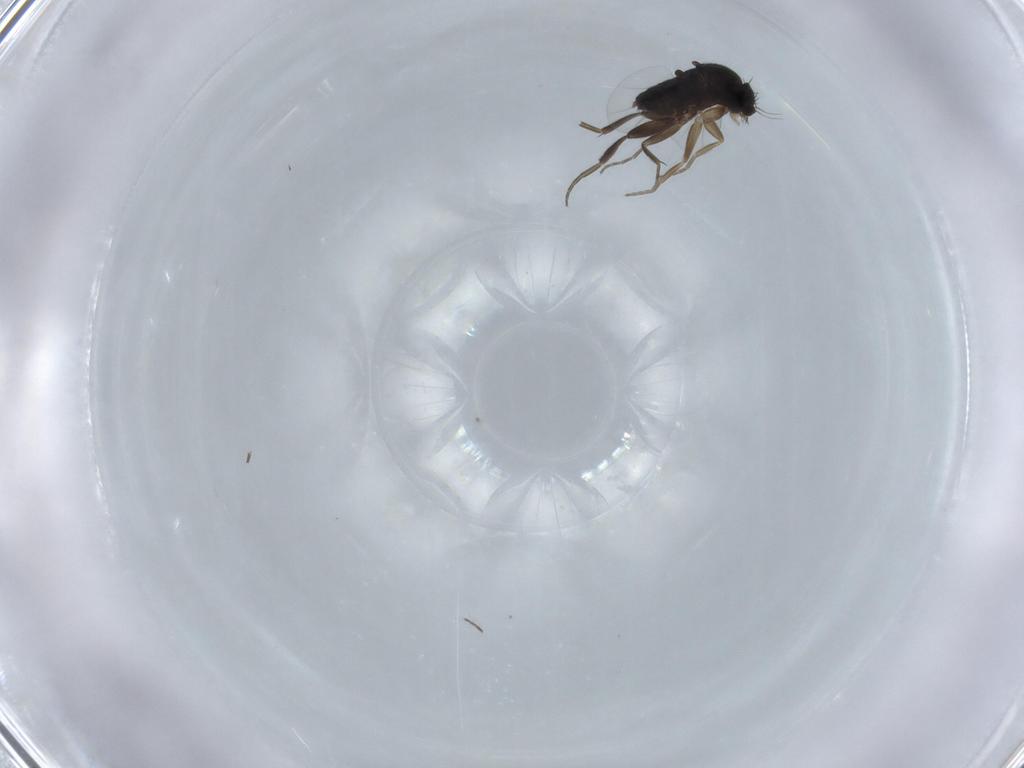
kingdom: Animalia
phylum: Arthropoda
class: Insecta
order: Diptera
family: Phoridae
